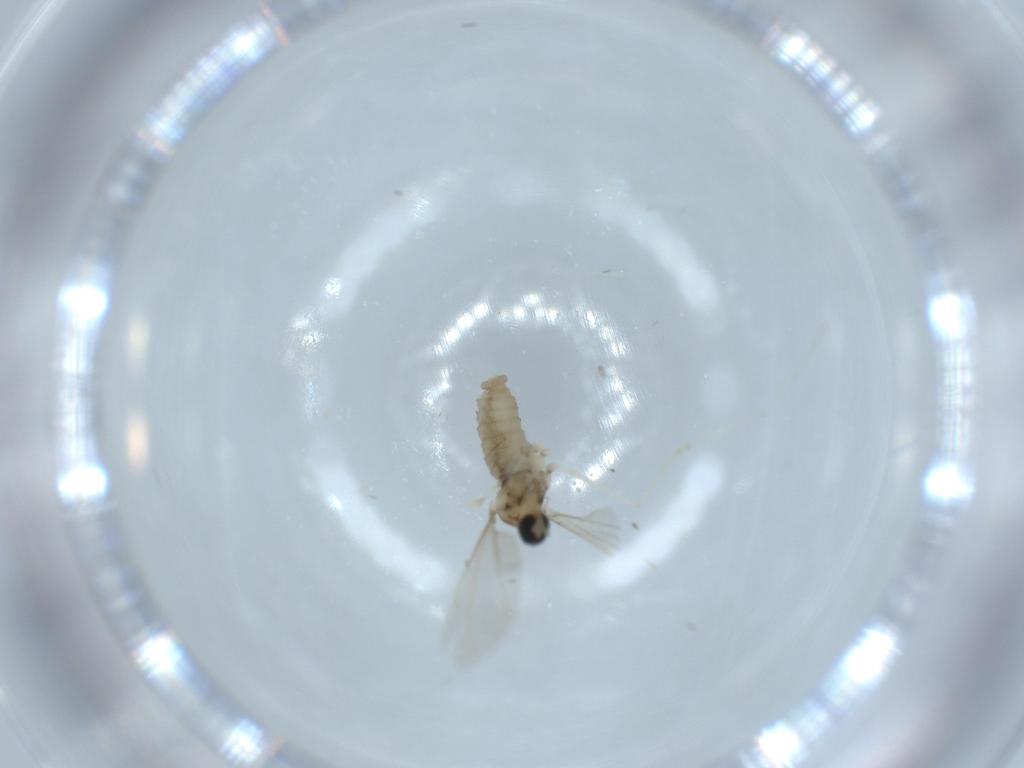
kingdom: Animalia
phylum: Arthropoda
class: Insecta
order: Diptera
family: Cecidomyiidae
